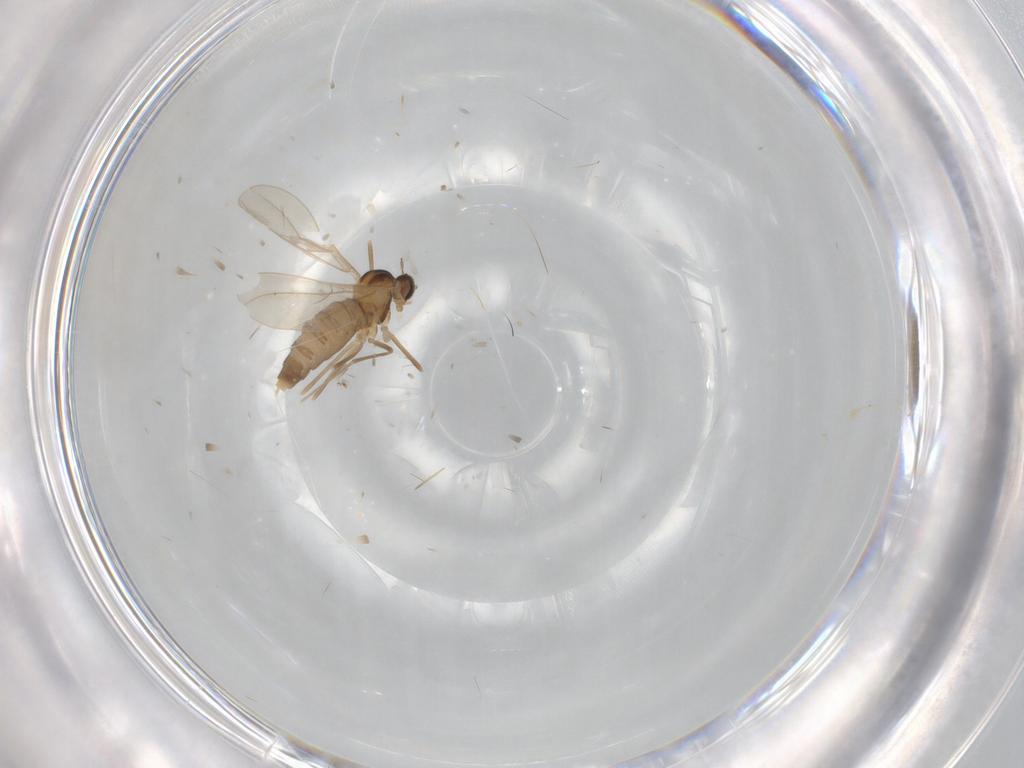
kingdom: Animalia
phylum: Arthropoda
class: Insecta
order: Diptera
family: Cecidomyiidae
